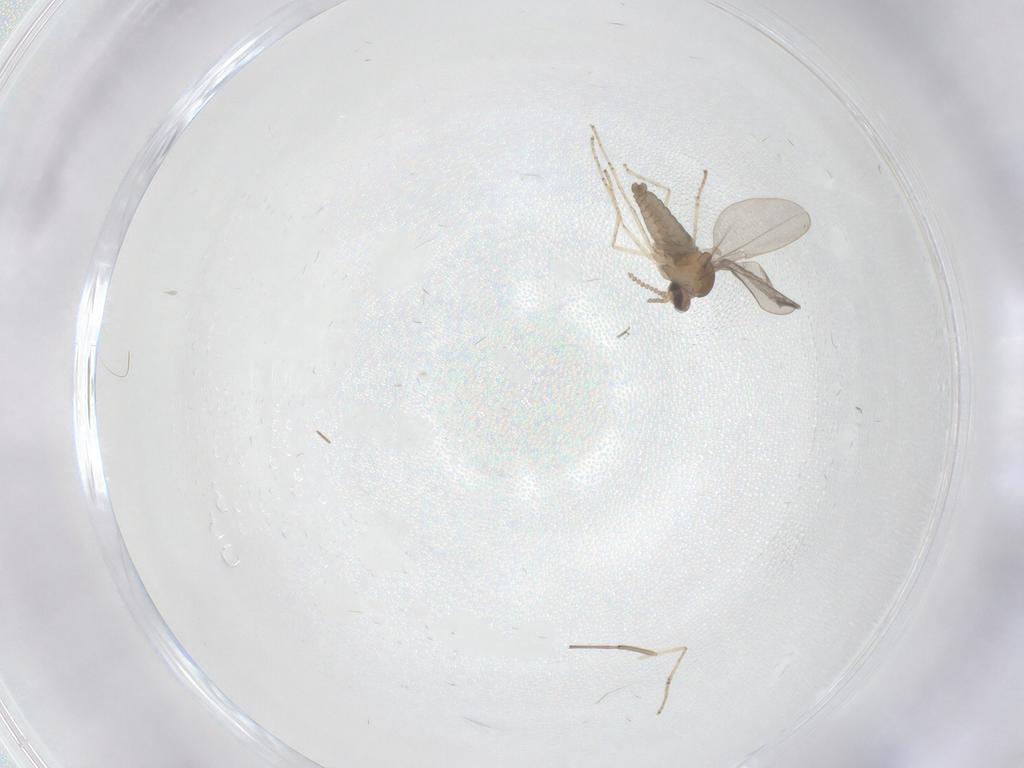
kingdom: Animalia
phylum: Arthropoda
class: Insecta
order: Diptera
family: Cecidomyiidae
